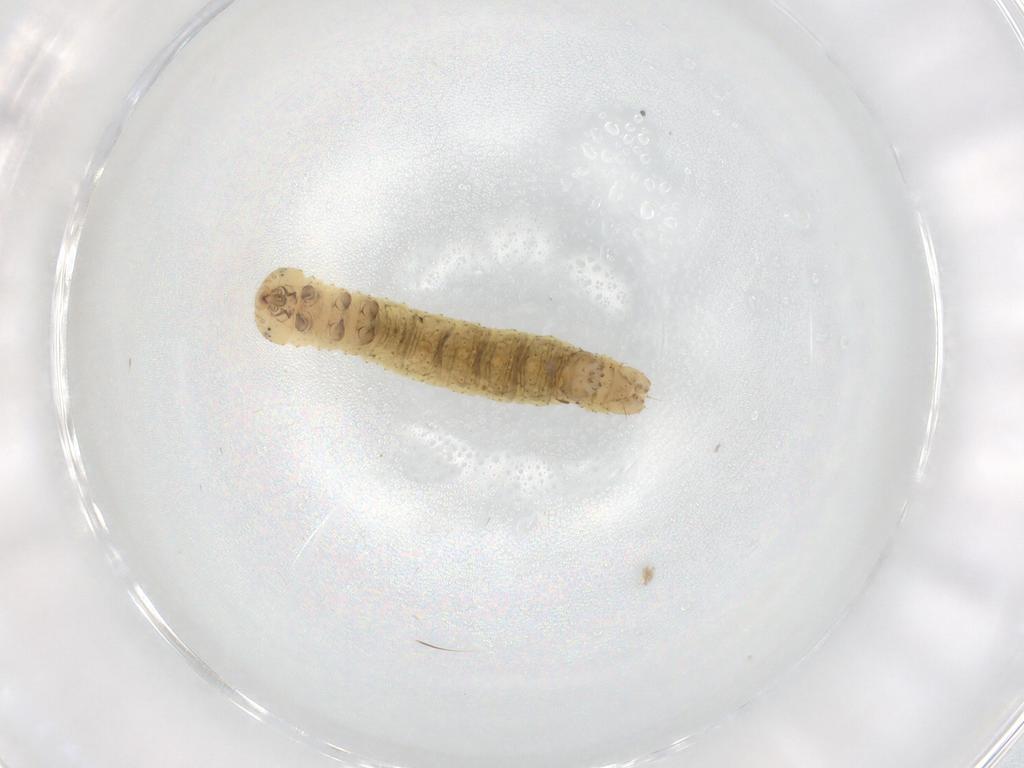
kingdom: Animalia
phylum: Arthropoda
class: Insecta
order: Lepidoptera
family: Geometridae
